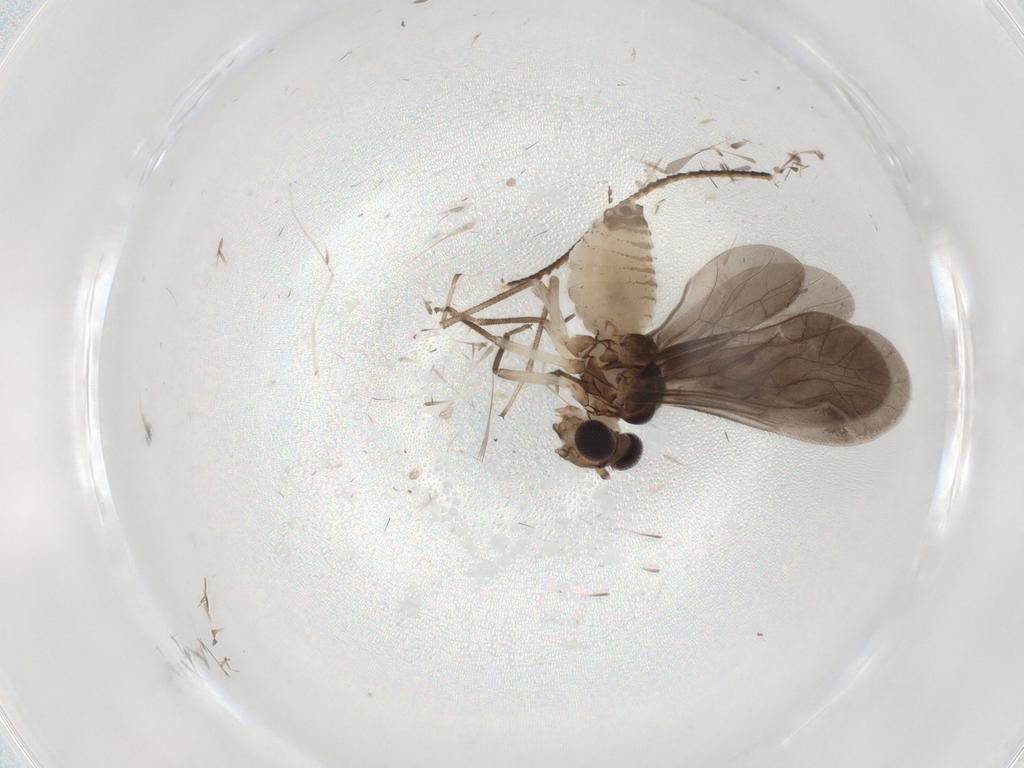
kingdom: Animalia
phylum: Arthropoda
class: Insecta
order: Psocodea
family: Caeciliusidae
